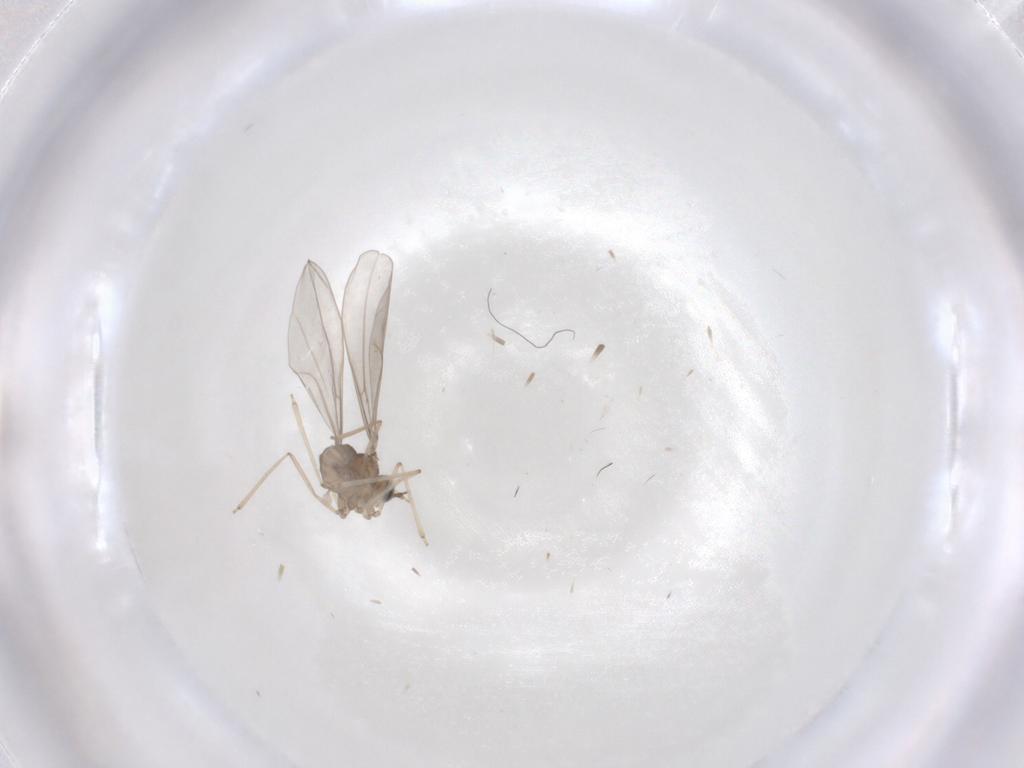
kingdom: Animalia
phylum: Arthropoda
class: Insecta
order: Diptera
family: Cecidomyiidae
